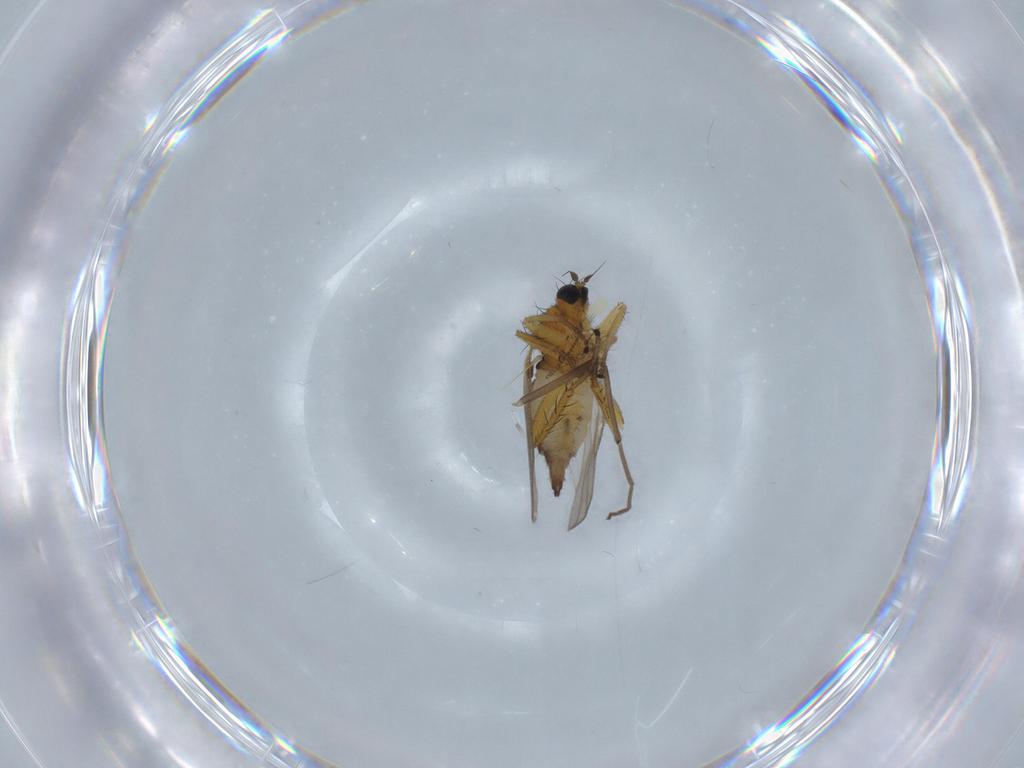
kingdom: Animalia
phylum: Arthropoda
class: Insecta
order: Diptera
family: Hybotidae
